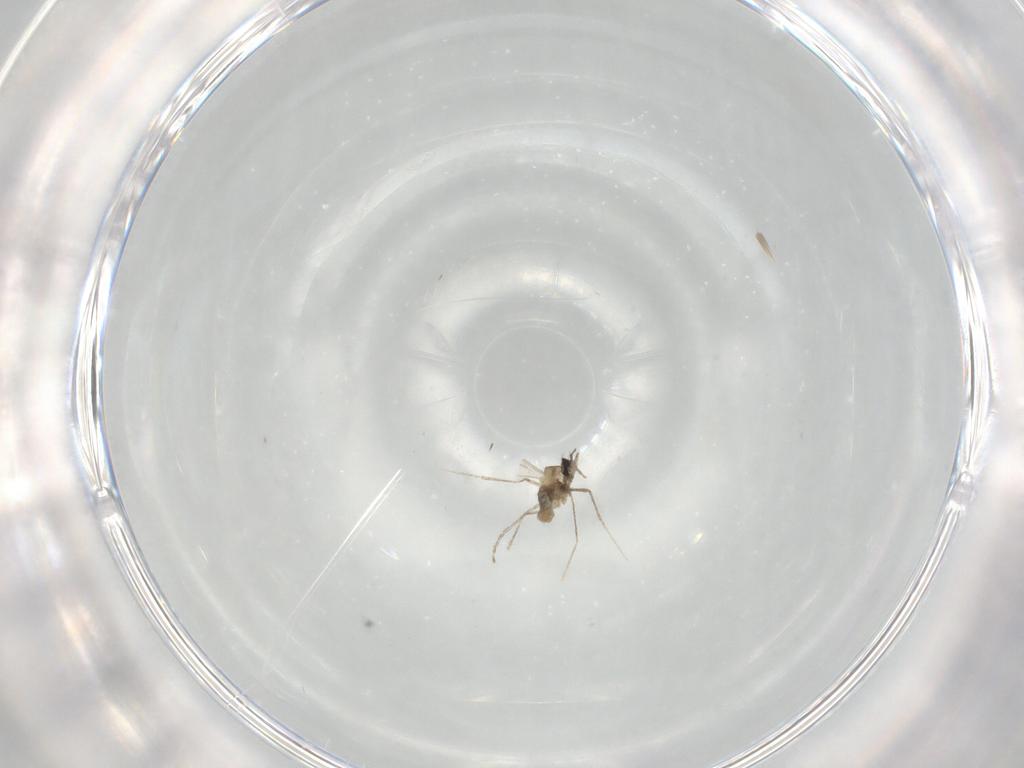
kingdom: Animalia
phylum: Arthropoda
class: Insecta
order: Diptera
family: Cecidomyiidae
